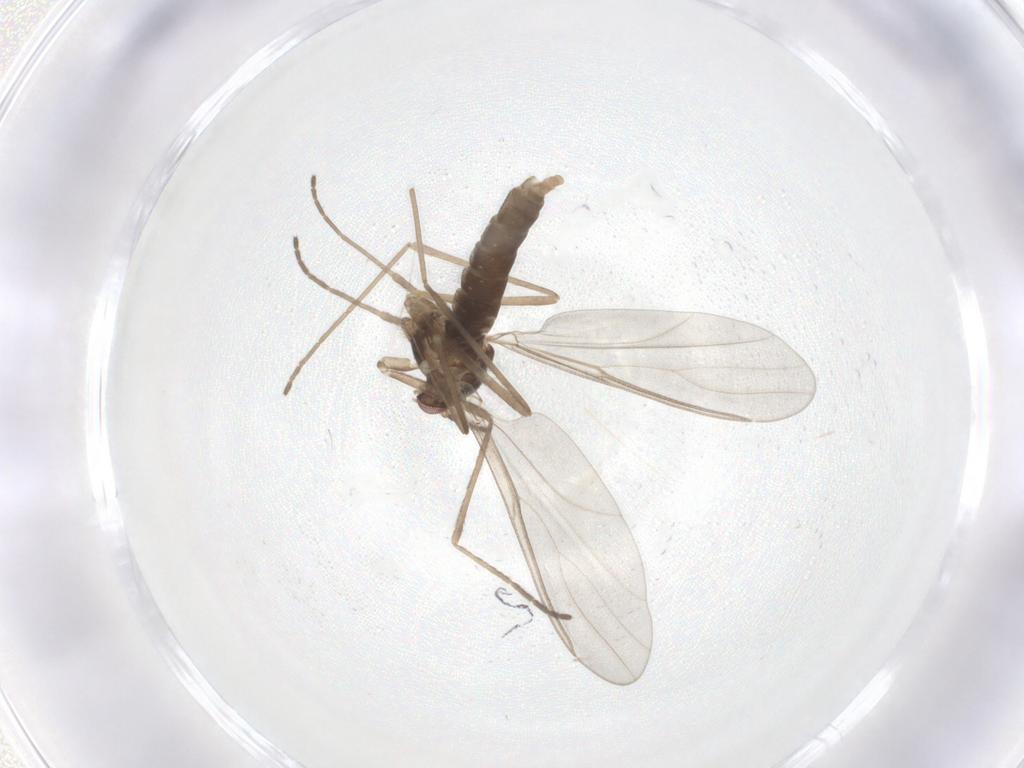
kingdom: Animalia
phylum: Arthropoda
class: Insecta
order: Diptera
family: Cecidomyiidae
